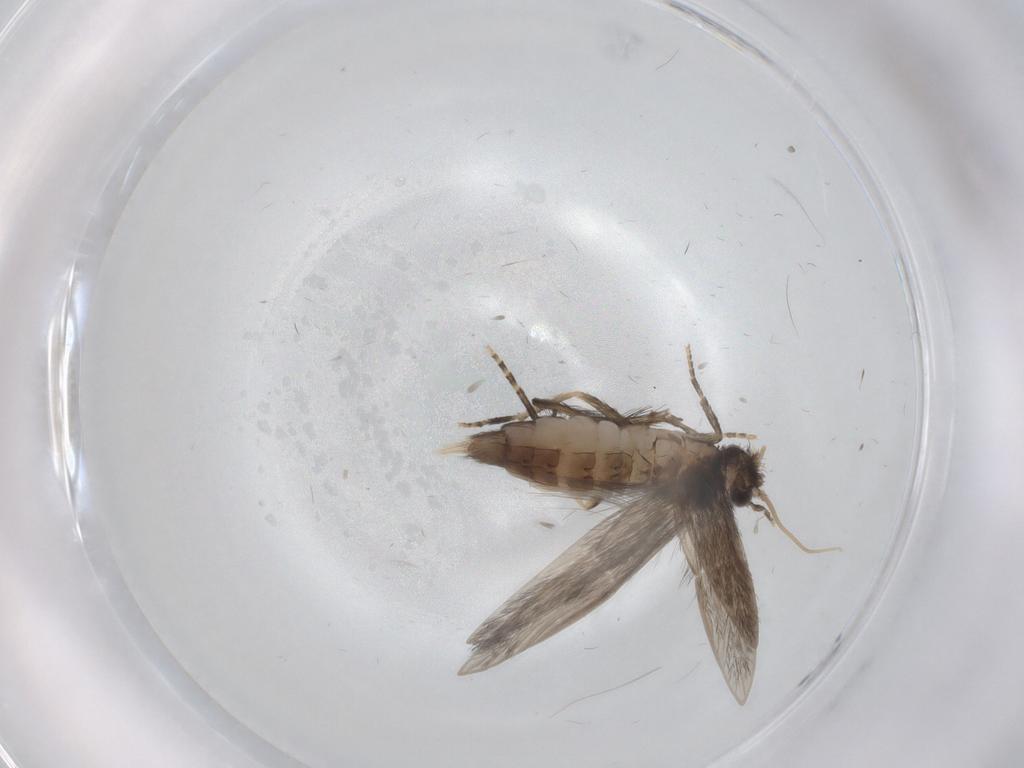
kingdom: Animalia
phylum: Arthropoda
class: Insecta
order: Trichoptera
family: Hydroptilidae
